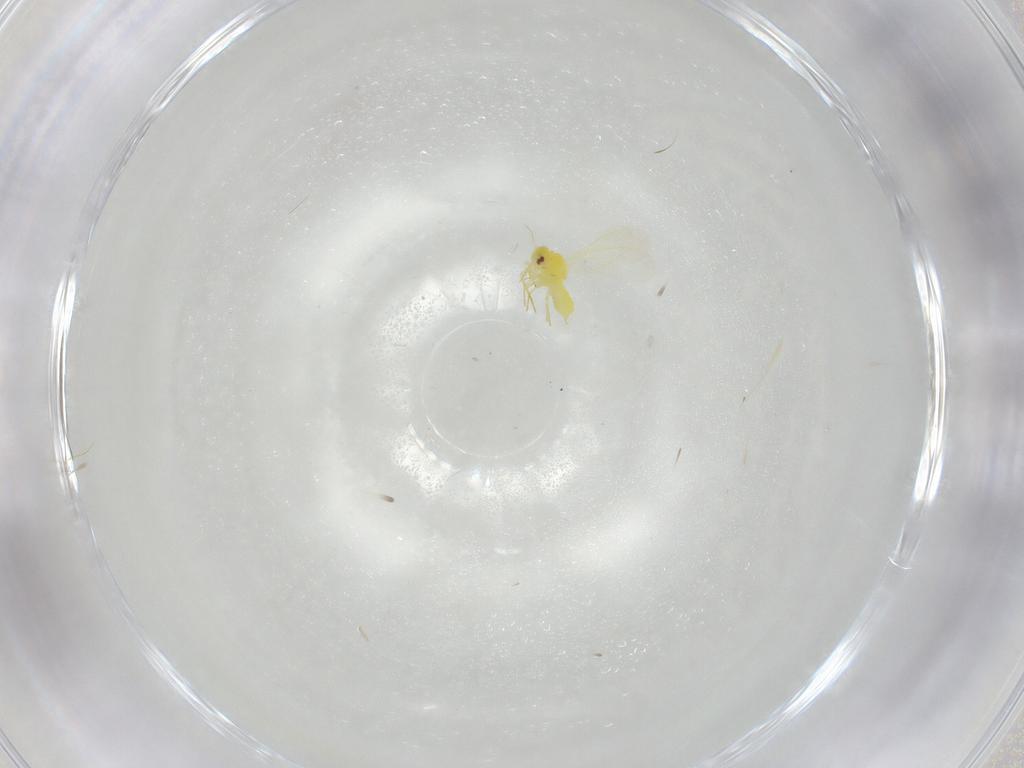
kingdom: Animalia
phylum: Arthropoda
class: Insecta
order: Hemiptera
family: Aleyrodidae
